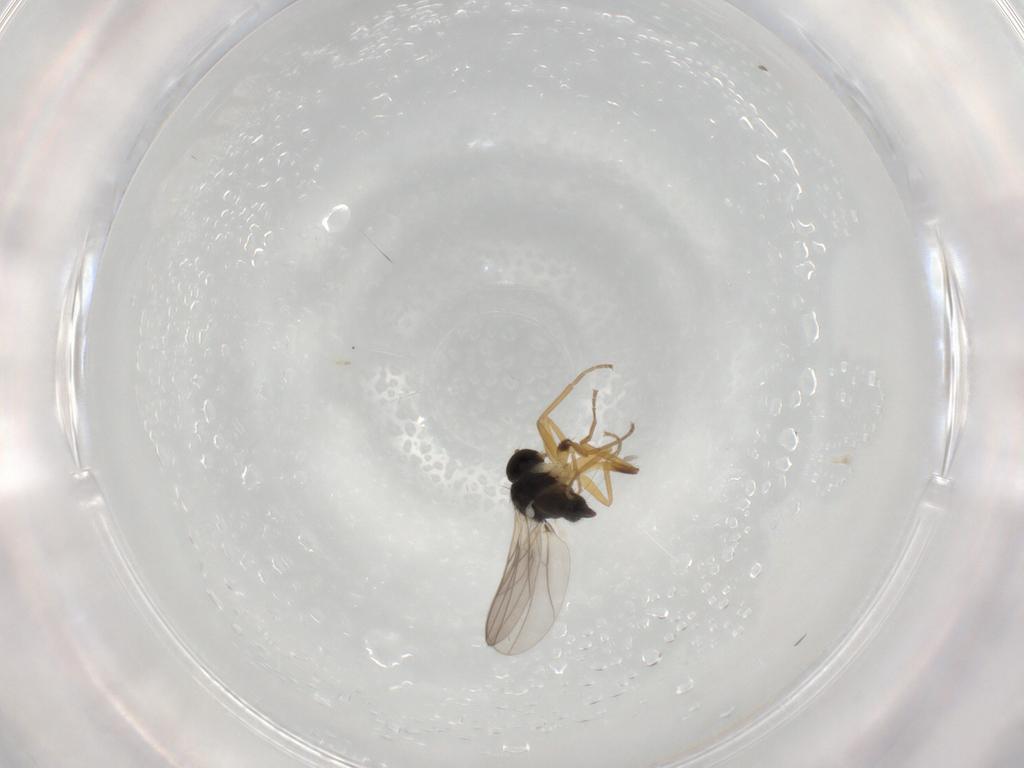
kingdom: Animalia
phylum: Arthropoda
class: Insecta
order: Diptera
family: Hybotidae
